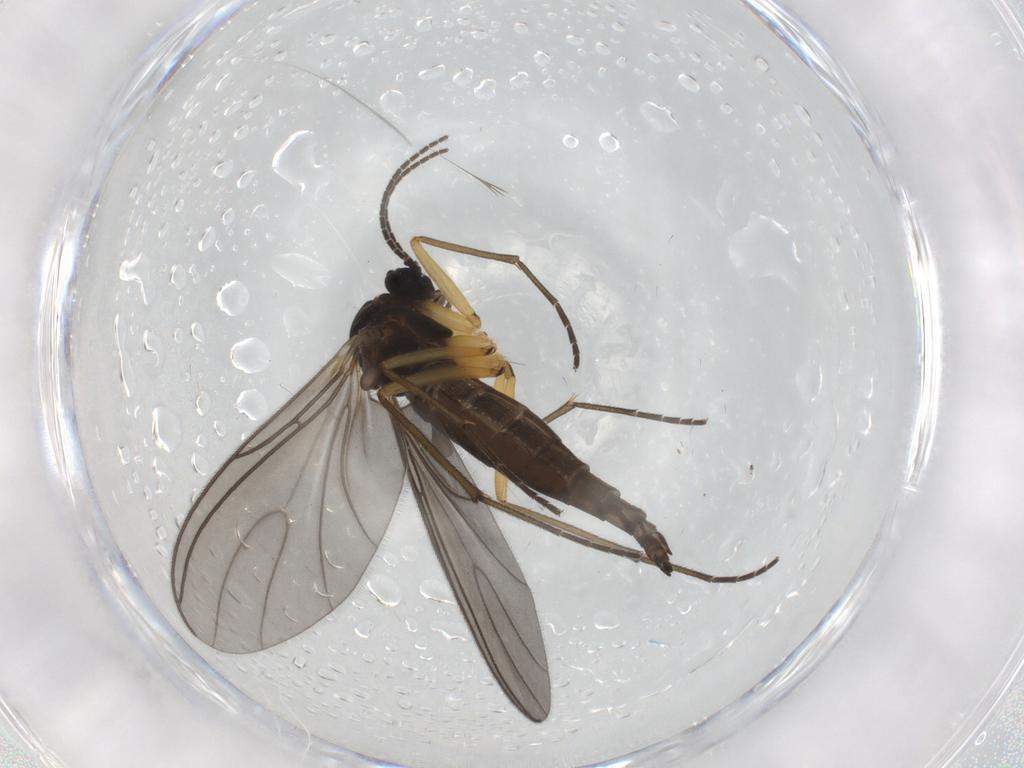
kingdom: Animalia
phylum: Arthropoda
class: Insecta
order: Diptera
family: Sciaridae
